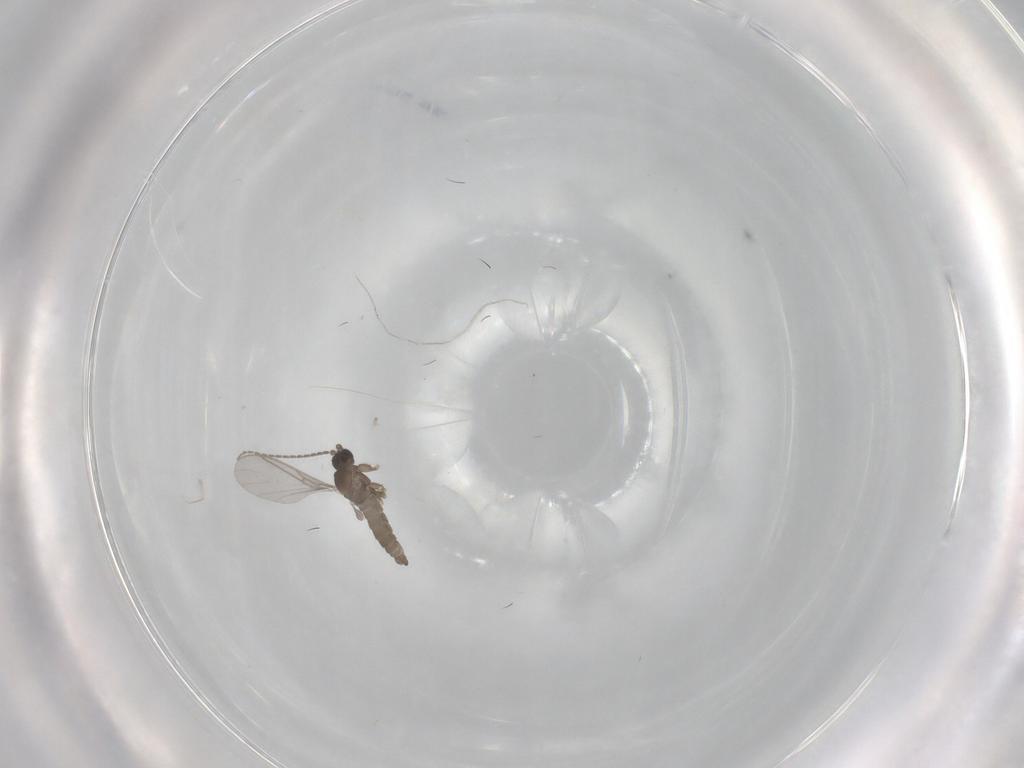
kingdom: Animalia
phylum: Arthropoda
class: Insecta
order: Diptera
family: Sciaridae
